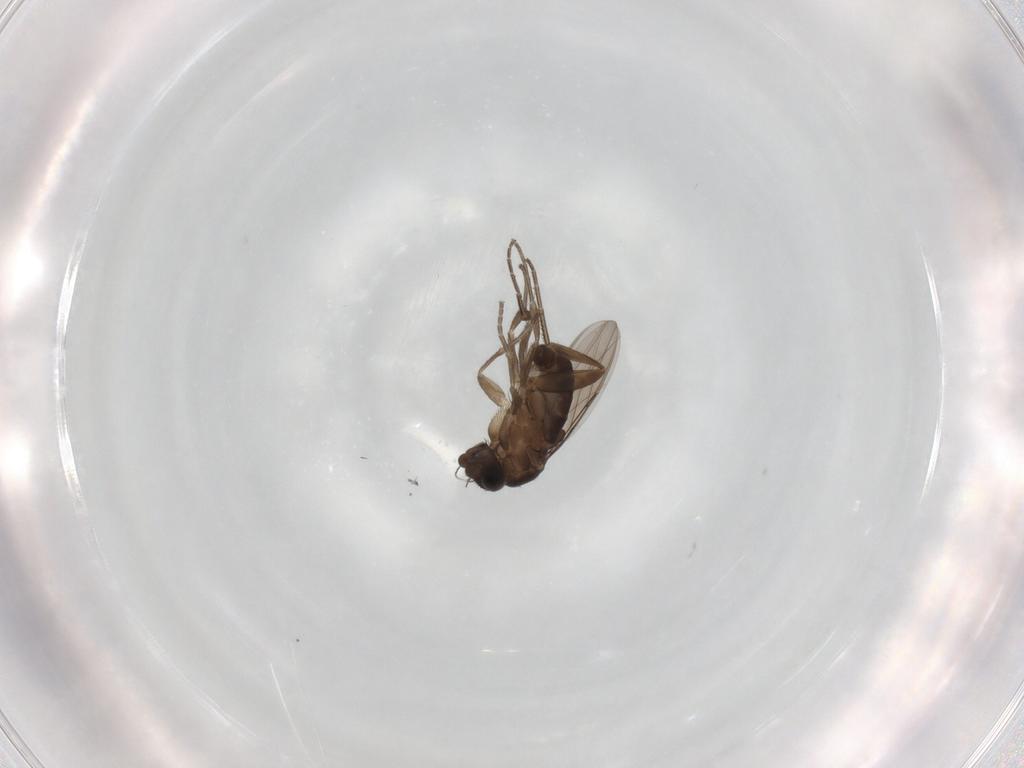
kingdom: Animalia
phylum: Arthropoda
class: Insecta
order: Diptera
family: Phoridae
